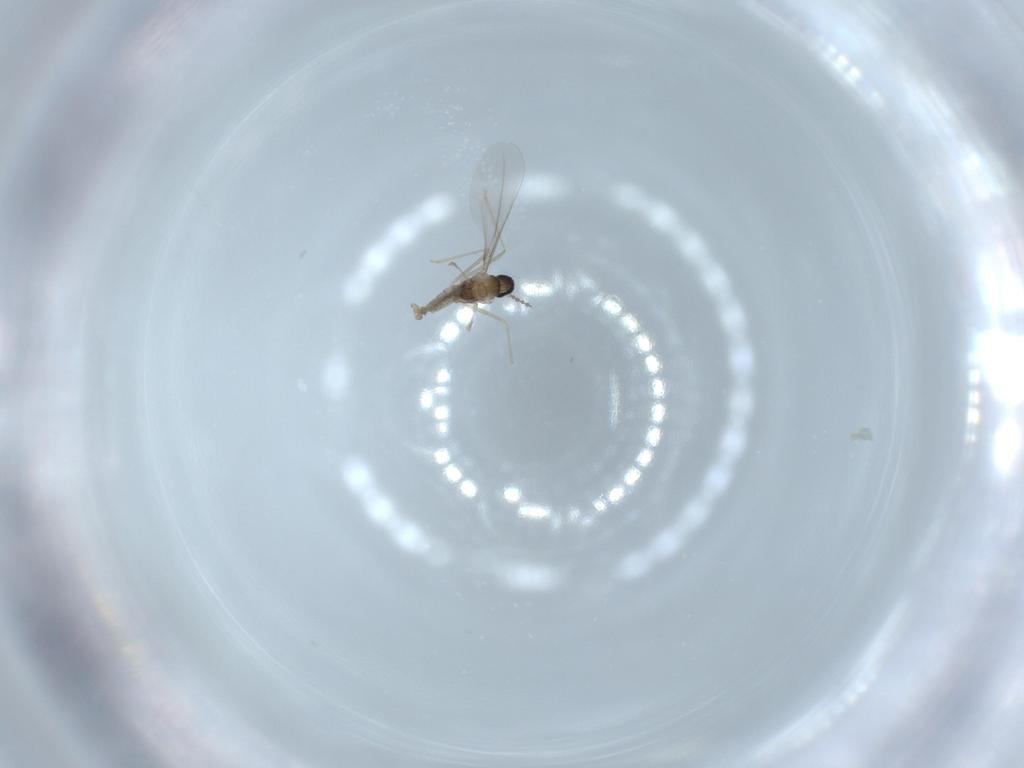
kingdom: Animalia
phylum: Arthropoda
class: Insecta
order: Diptera
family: Cecidomyiidae
